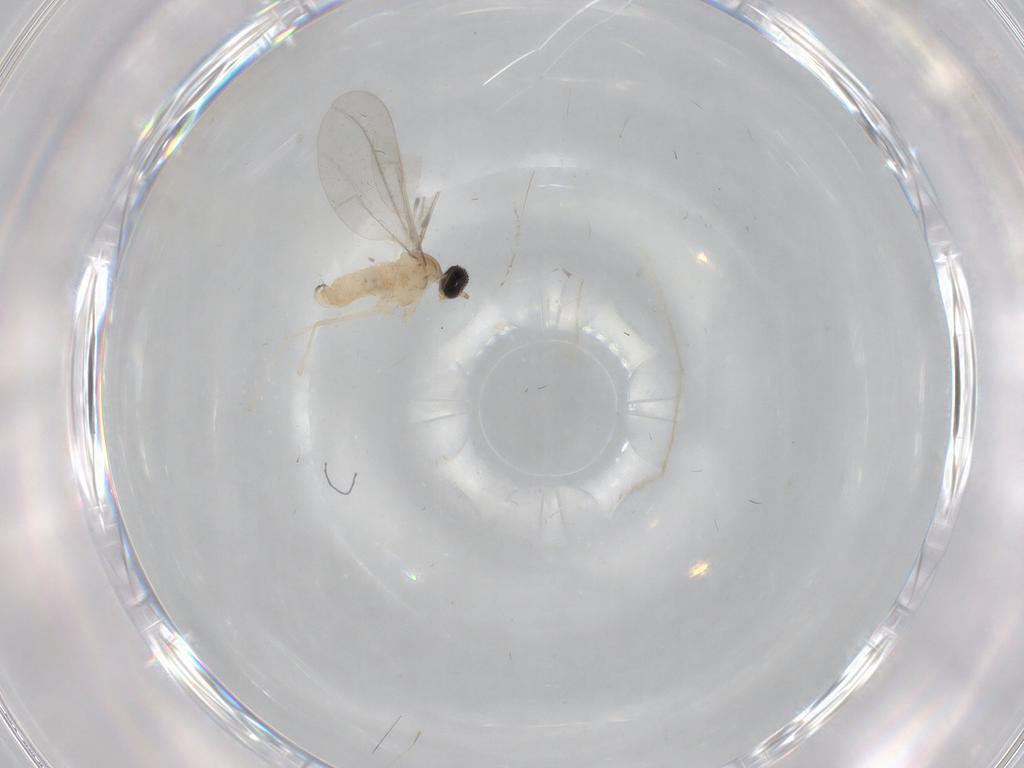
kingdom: Animalia
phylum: Arthropoda
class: Insecta
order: Diptera
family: Cecidomyiidae
